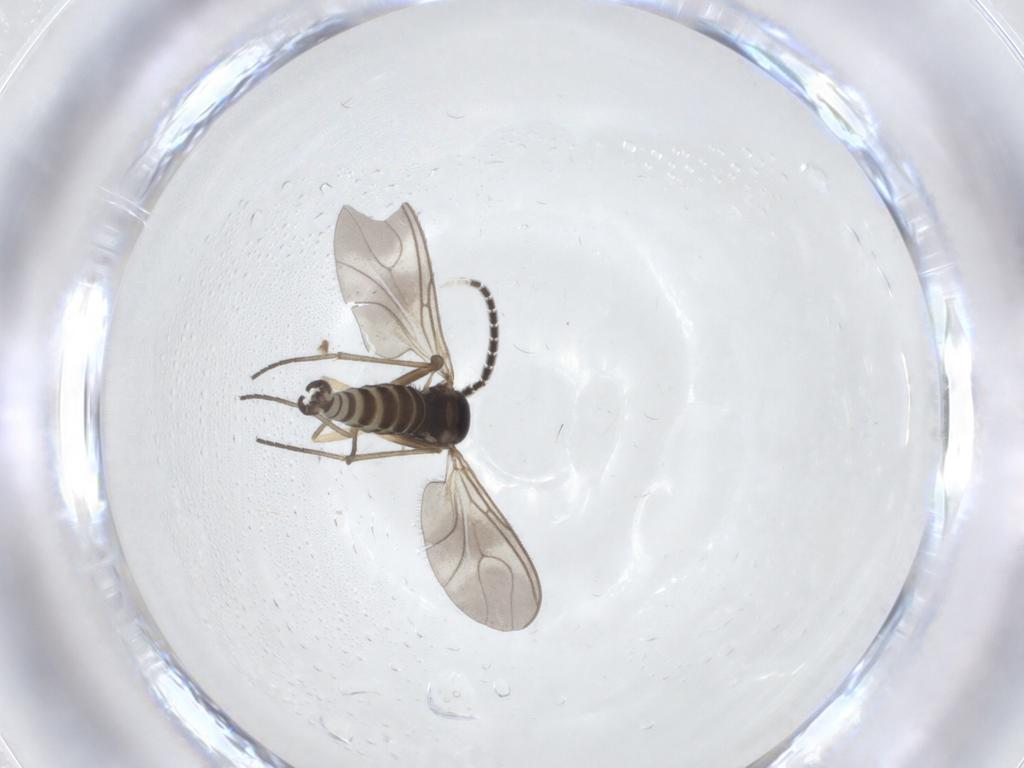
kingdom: Animalia
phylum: Arthropoda
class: Insecta
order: Diptera
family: Sciaridae
